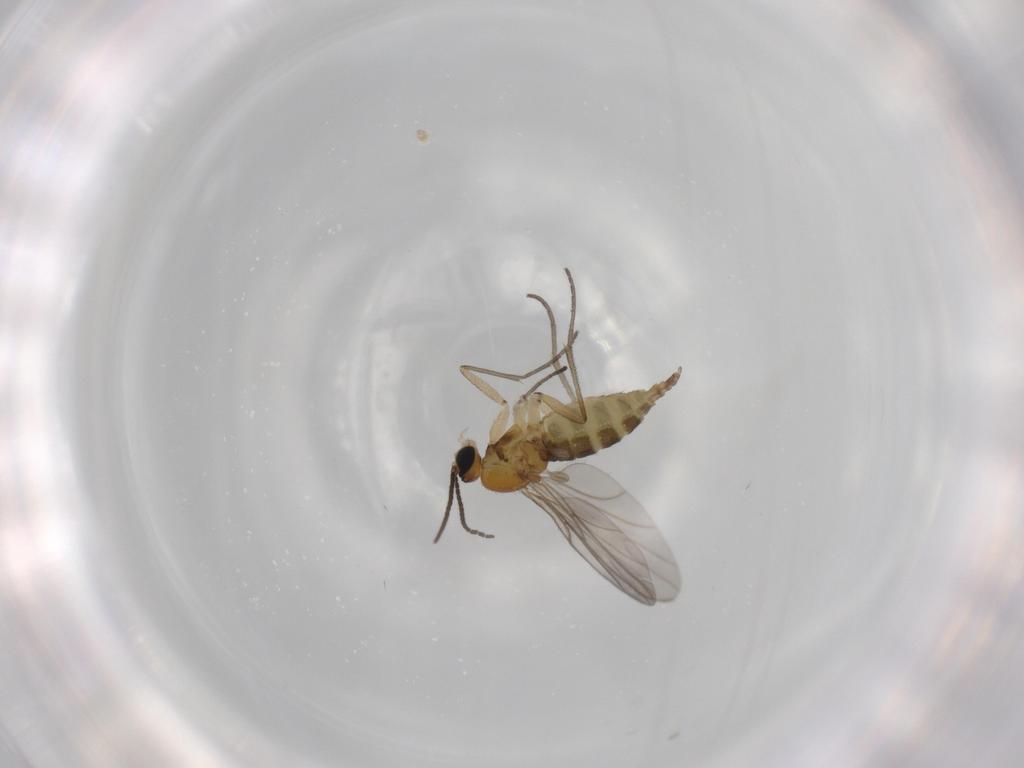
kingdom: Animalia
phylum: Arthropoda
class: Insecta
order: Diptera
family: Sciaridae
